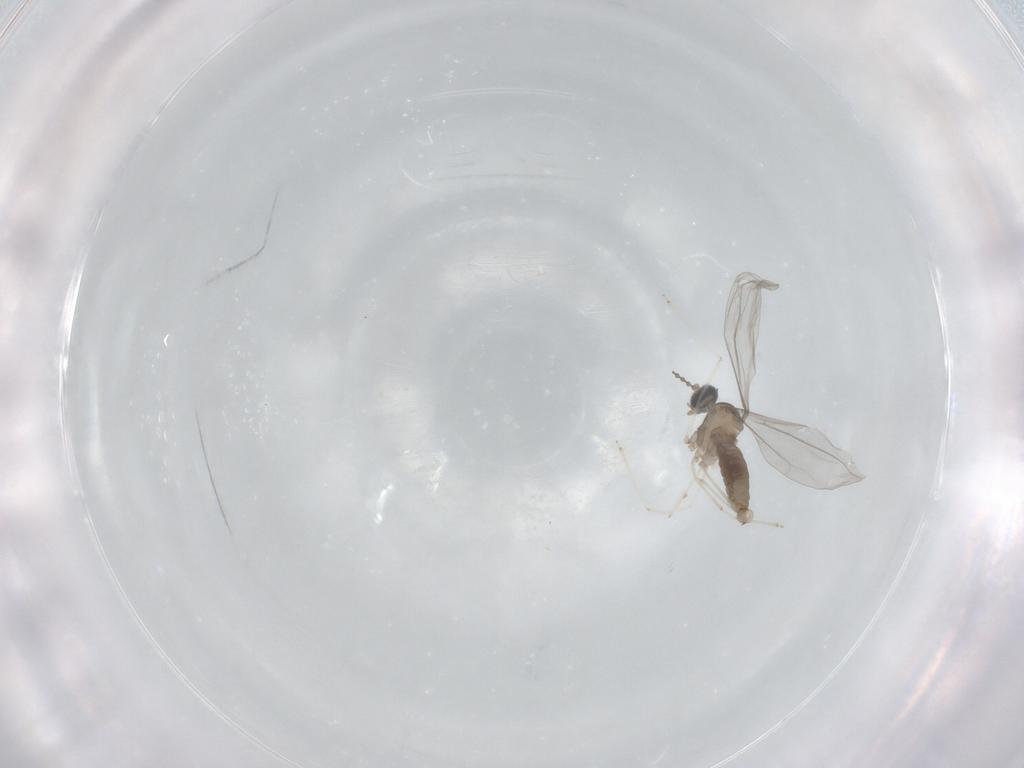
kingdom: Animalia
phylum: Arthropoda
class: Insecta
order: Diptera
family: Cecidomyiidae
